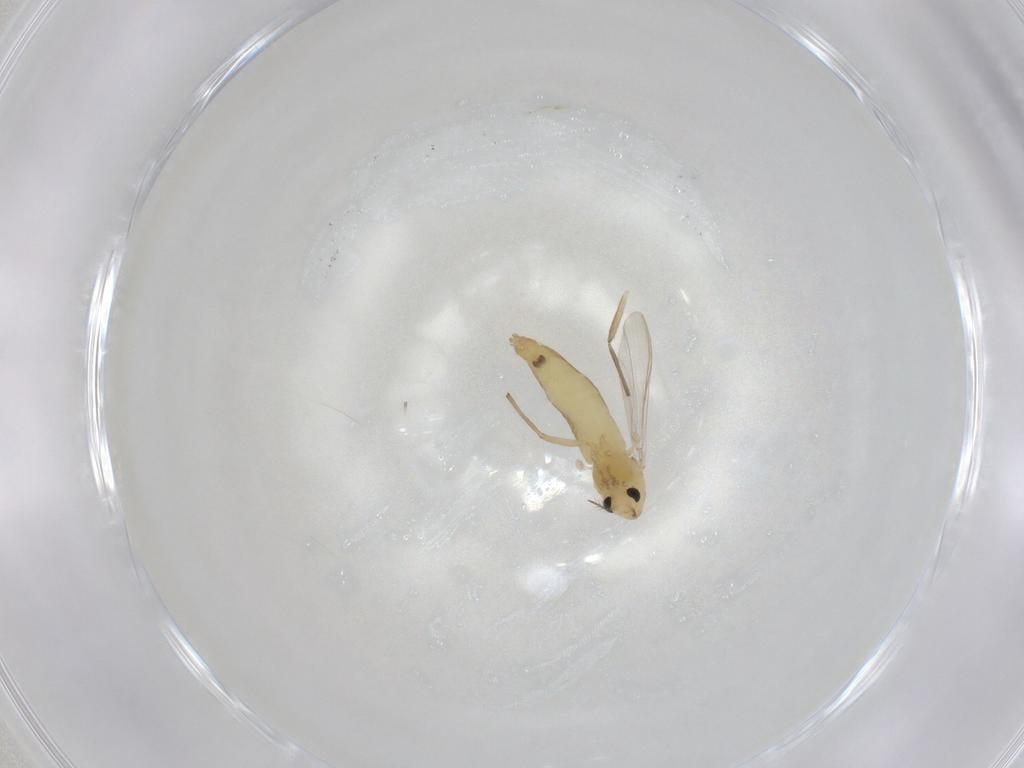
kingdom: Animalia
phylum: Arthropoda
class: Insecta
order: Diptera
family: Chironomidae
